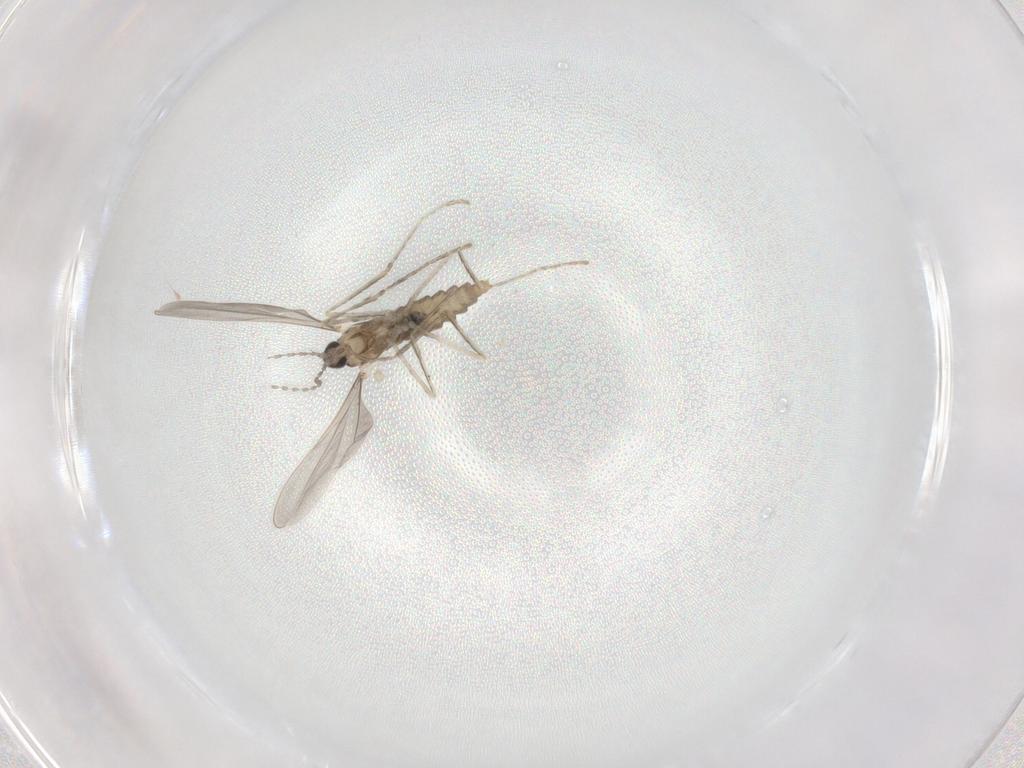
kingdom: Animalia
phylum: Arthropoda
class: Insecta
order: Diptera
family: Cecidomyiidae
